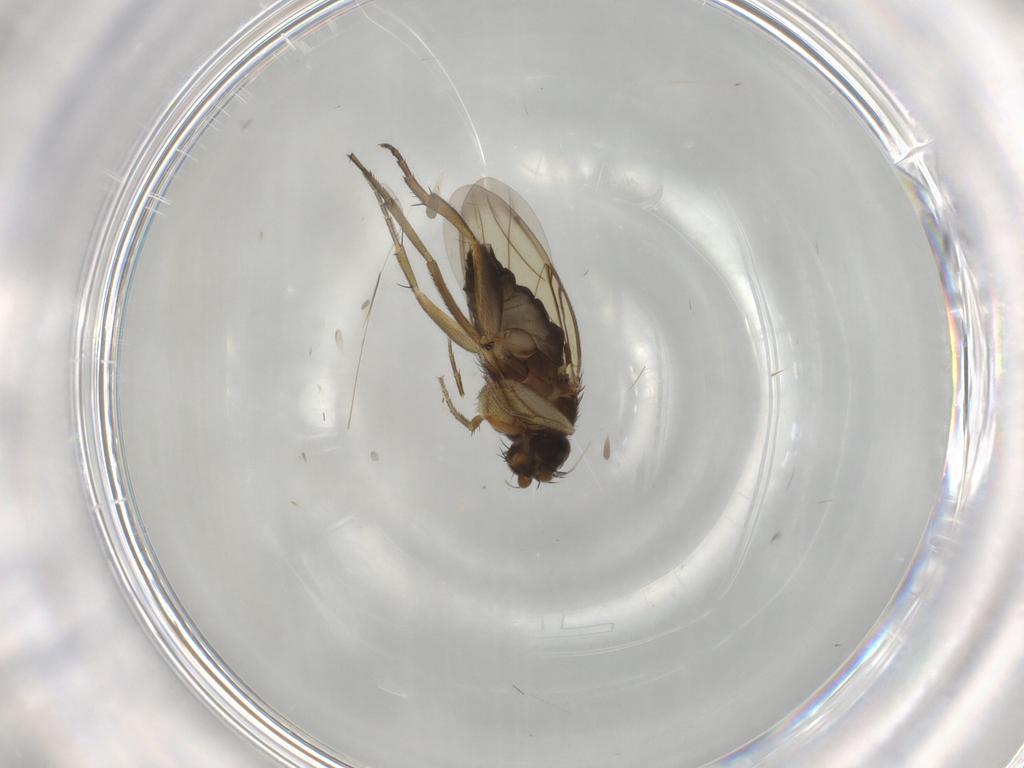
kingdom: Animalia
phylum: Arthropoda
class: Insecta
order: Diptera
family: Phoridae
